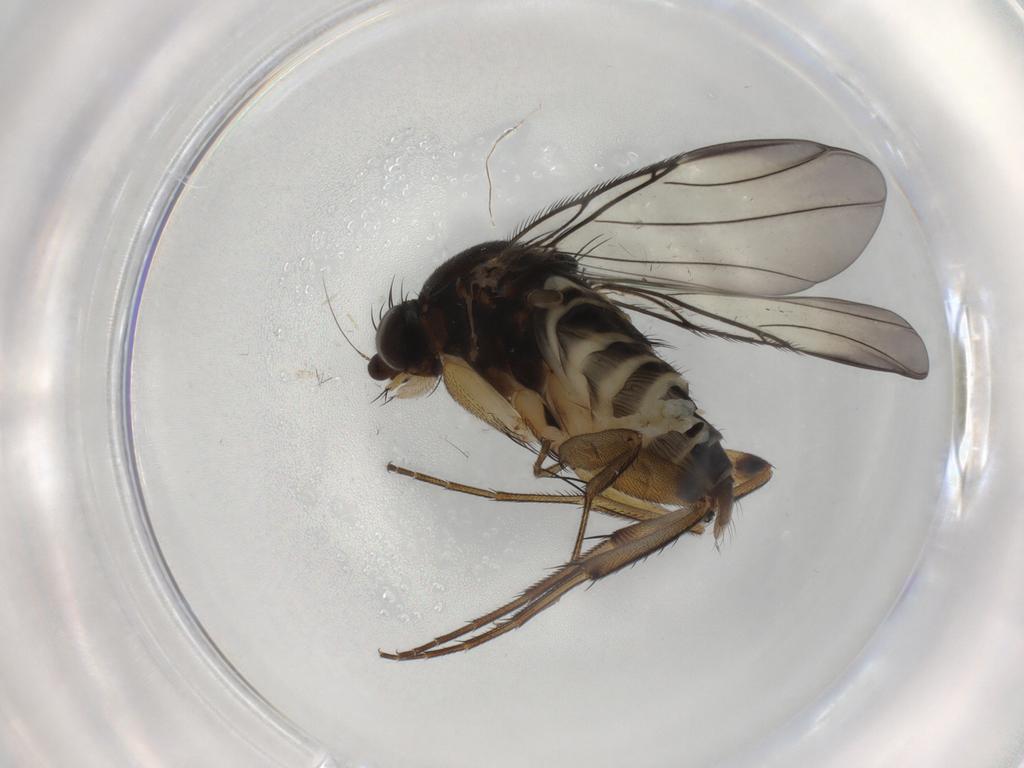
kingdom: Animalia
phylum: Arthropoda
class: Insecta
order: Diptera
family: Phoridae
